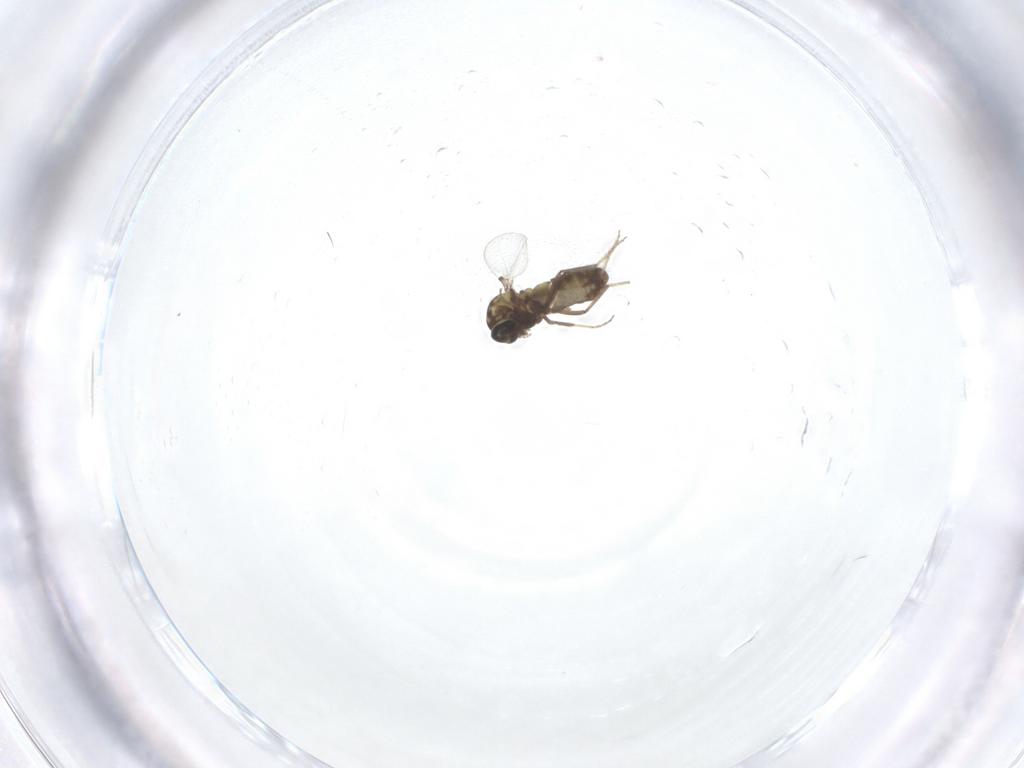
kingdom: Animalia
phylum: Arthropoda
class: Insecta
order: Diptera
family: Ceratopogonidae
